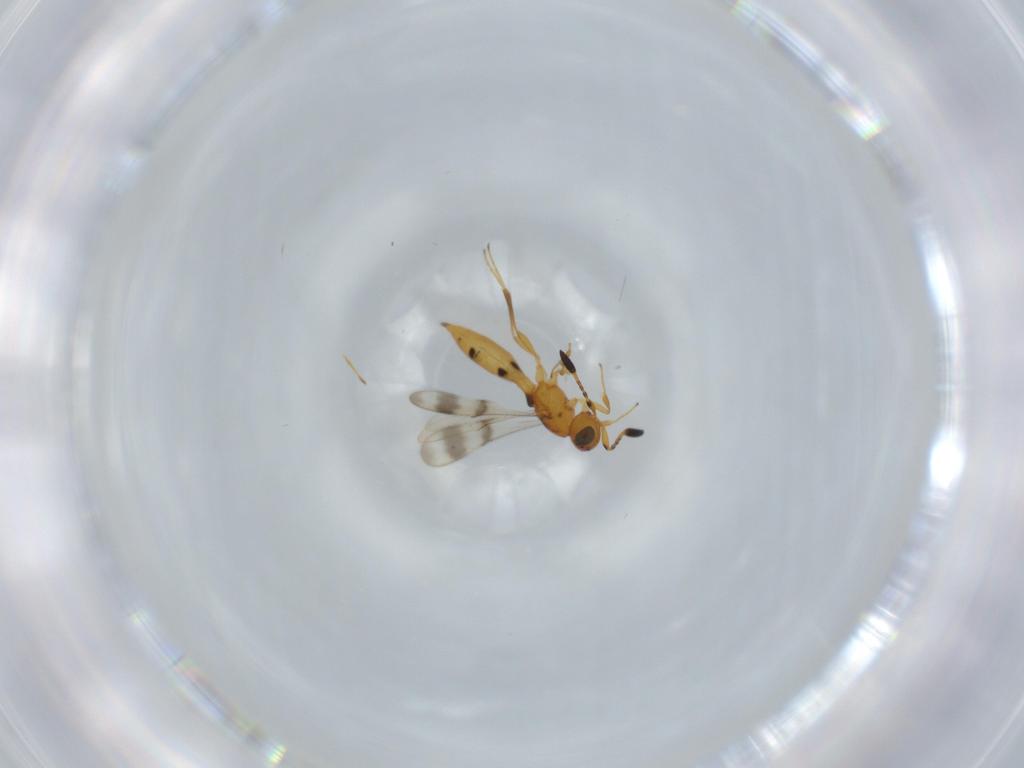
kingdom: Animalia
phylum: Arthropoda
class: Insecta
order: Hymenoptera
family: Scelionidae
